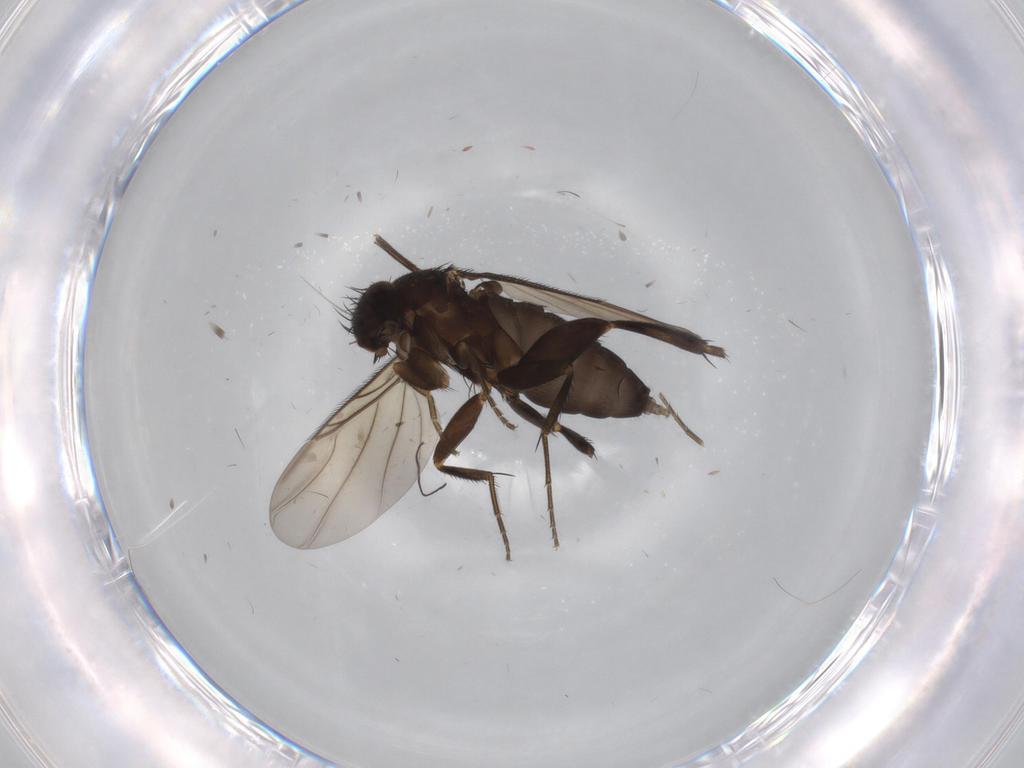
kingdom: Animalia
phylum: Arthropoda
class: Insecta
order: Diptera
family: Phoridae
